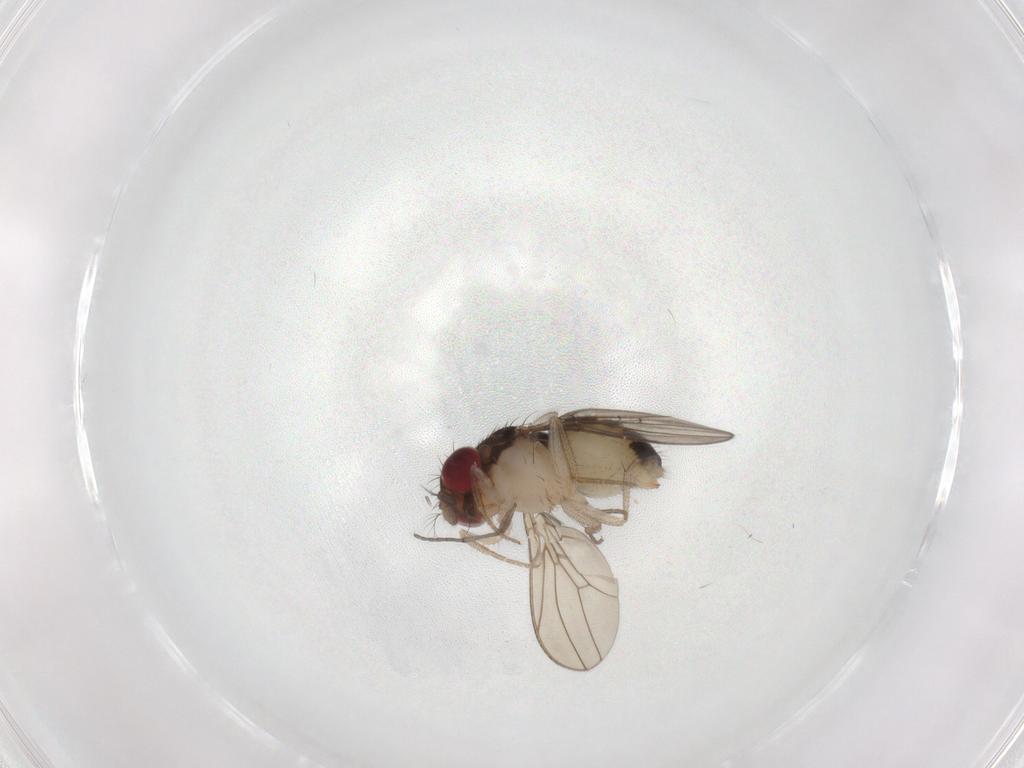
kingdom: Animalia
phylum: Arthropoda
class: Insecta
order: Diptera
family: Drosophilidae
